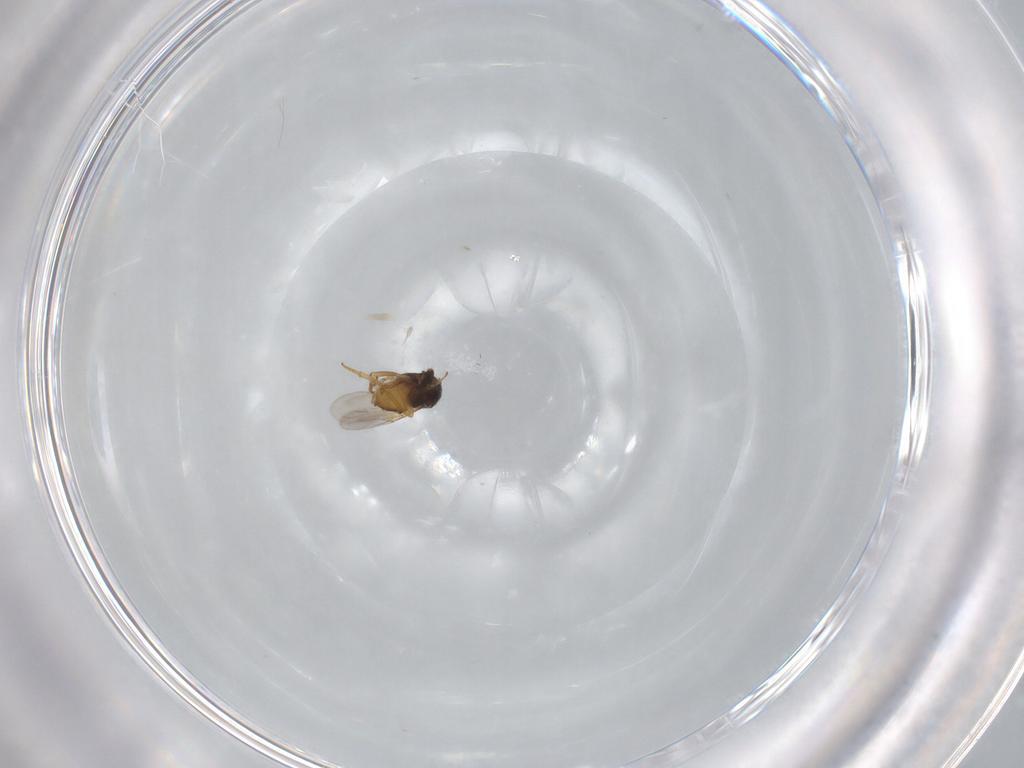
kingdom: Animalia
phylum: Arthropoda
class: Insecta
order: Hymenoptera
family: Encyrtidae
